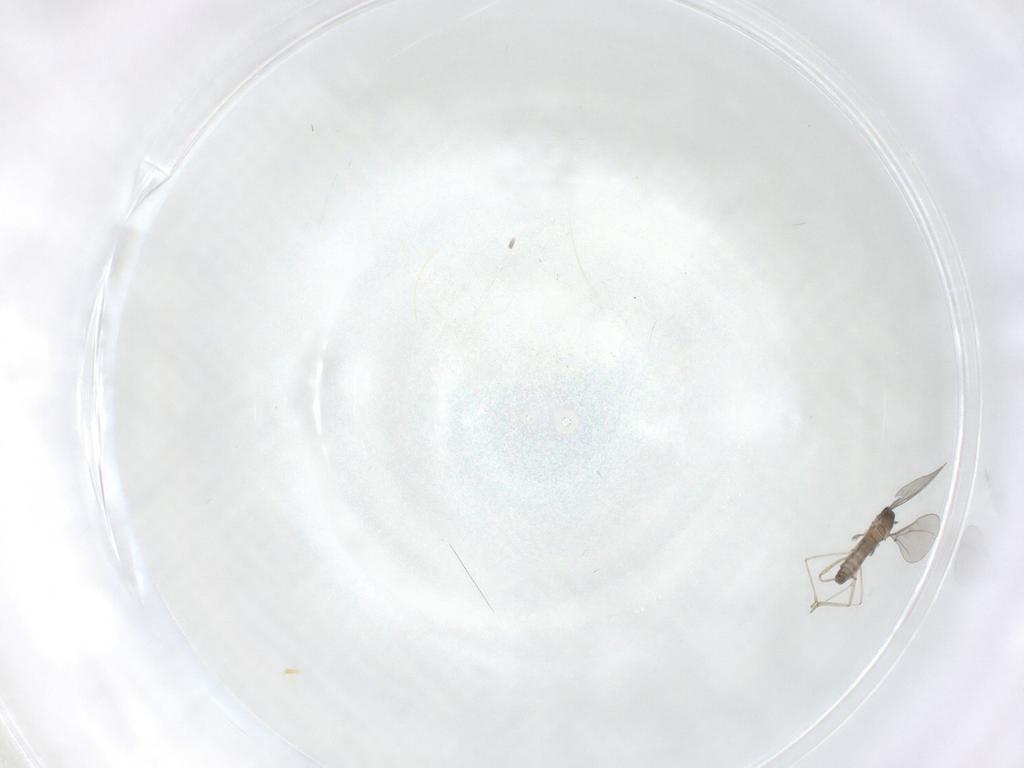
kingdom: Animalia
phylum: Arthropoda
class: Insecta
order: Diptera
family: Cecidomyiidae
